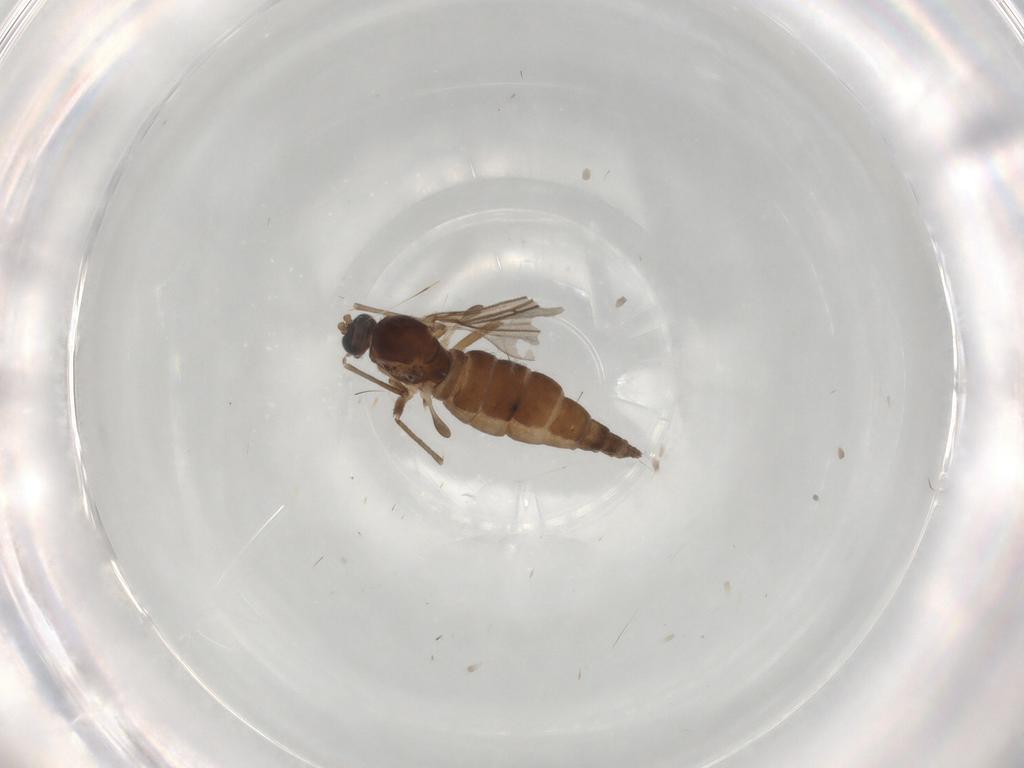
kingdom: Animalia
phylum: Arthropoda
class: Insecta
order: Diptera
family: Sciaridae
